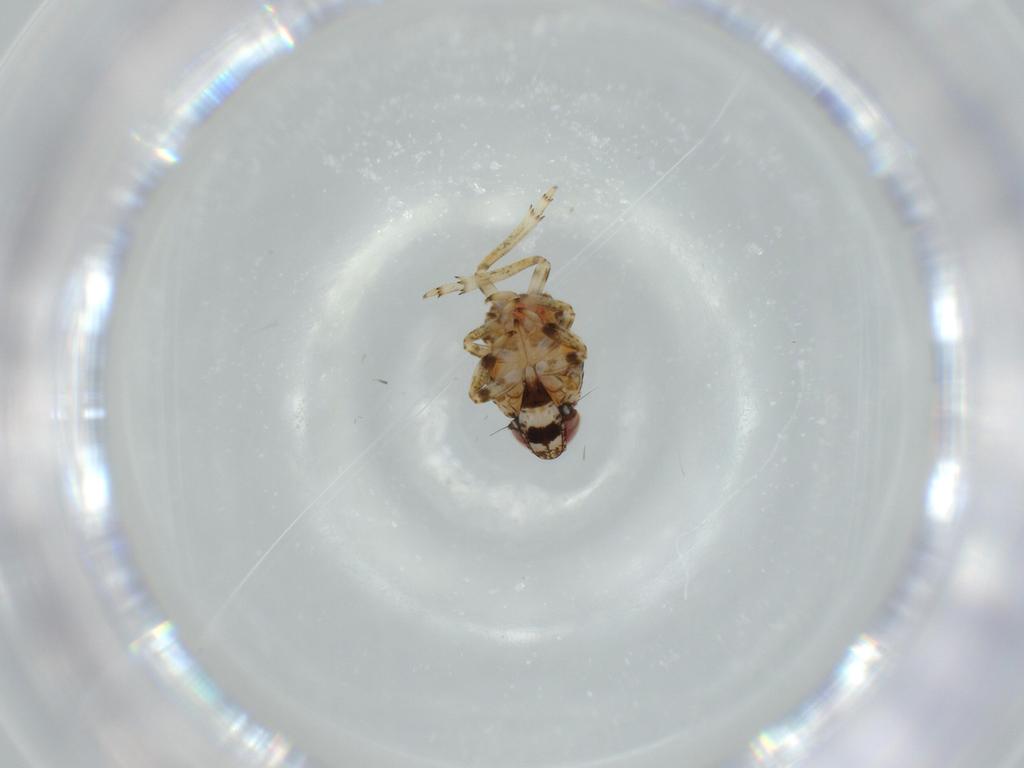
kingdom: Animalia
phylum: Arthropoda
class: Insecta
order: Hemiptera
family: Issidae
